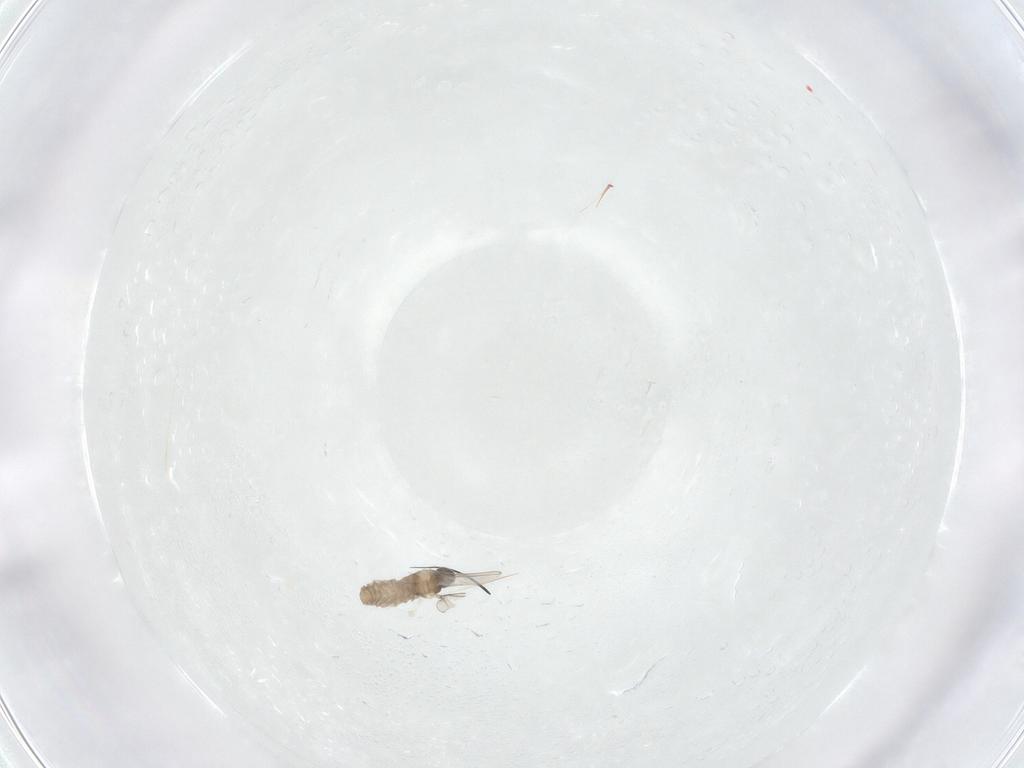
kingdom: Animalia
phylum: Arthropoda
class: Insecta
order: Diptera
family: Cecidomyiidae
